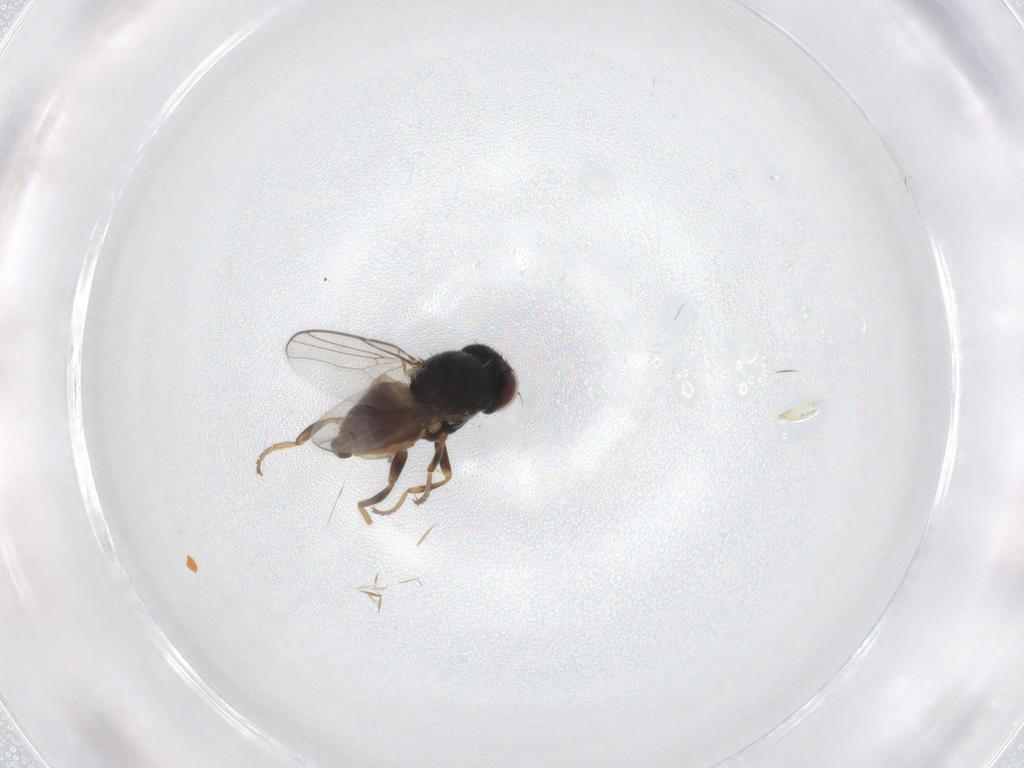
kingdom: Animalia
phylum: Arthropoda
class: Insecta
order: Diptera
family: Chloropidae
